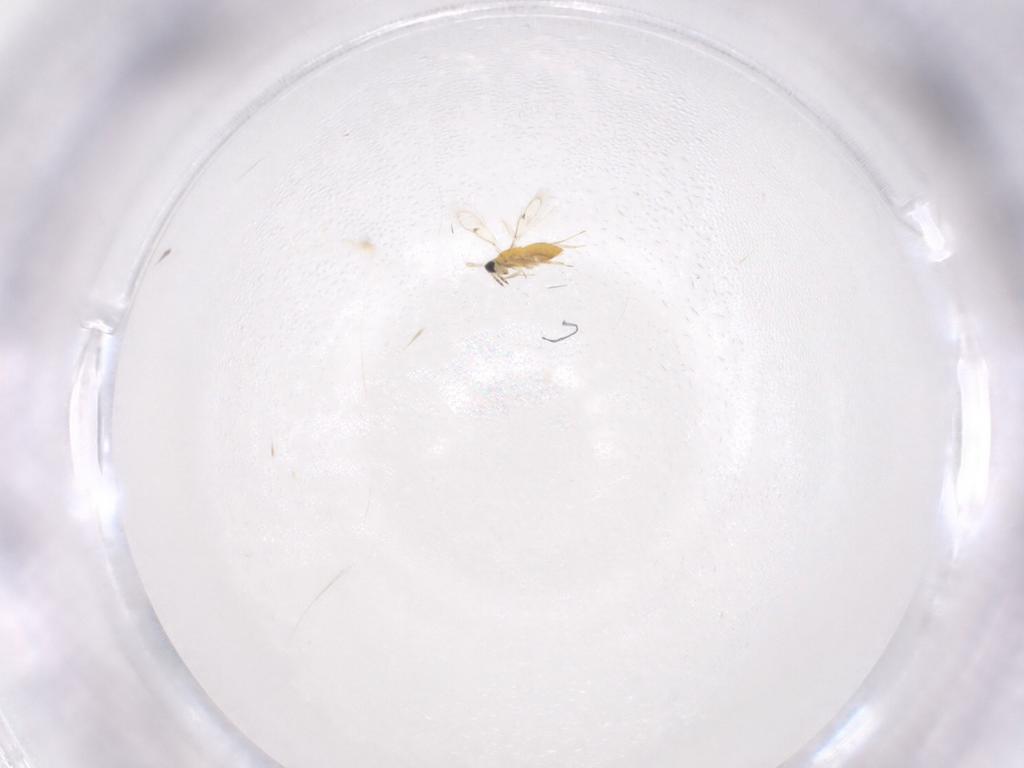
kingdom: Animalia
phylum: Arthropoda
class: Insecta
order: Hymenoptera
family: Trichogrammatidae
